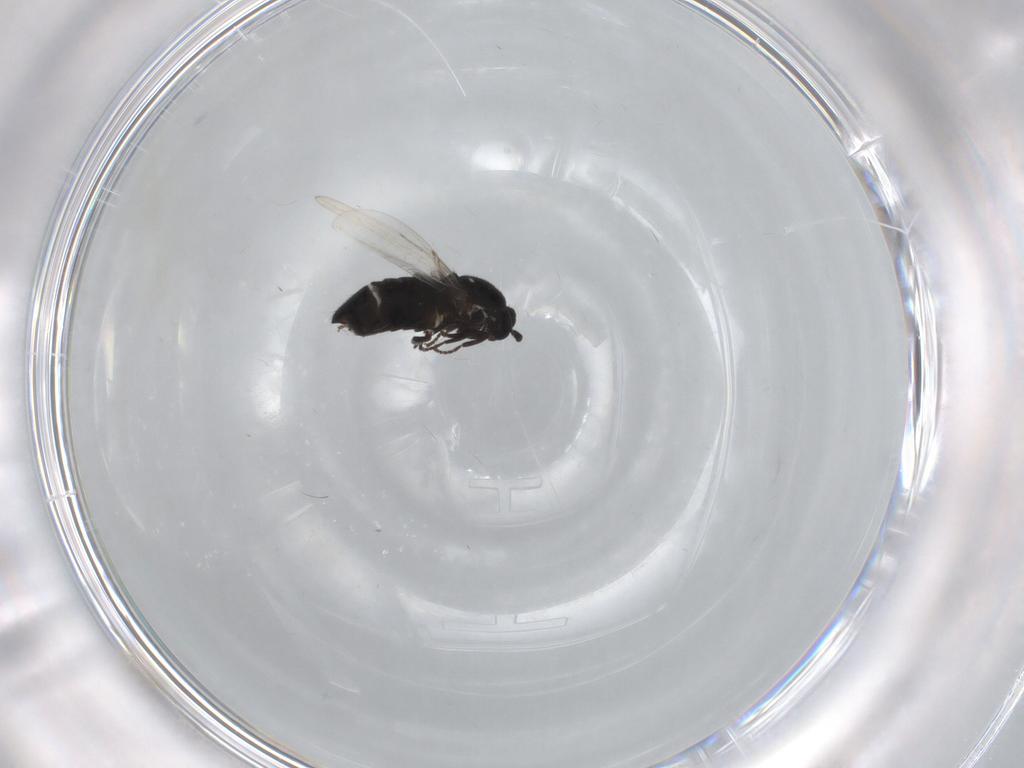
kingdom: Animalia
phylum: Arthropoda
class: Insecta
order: Diptera
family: Scatopsidae
